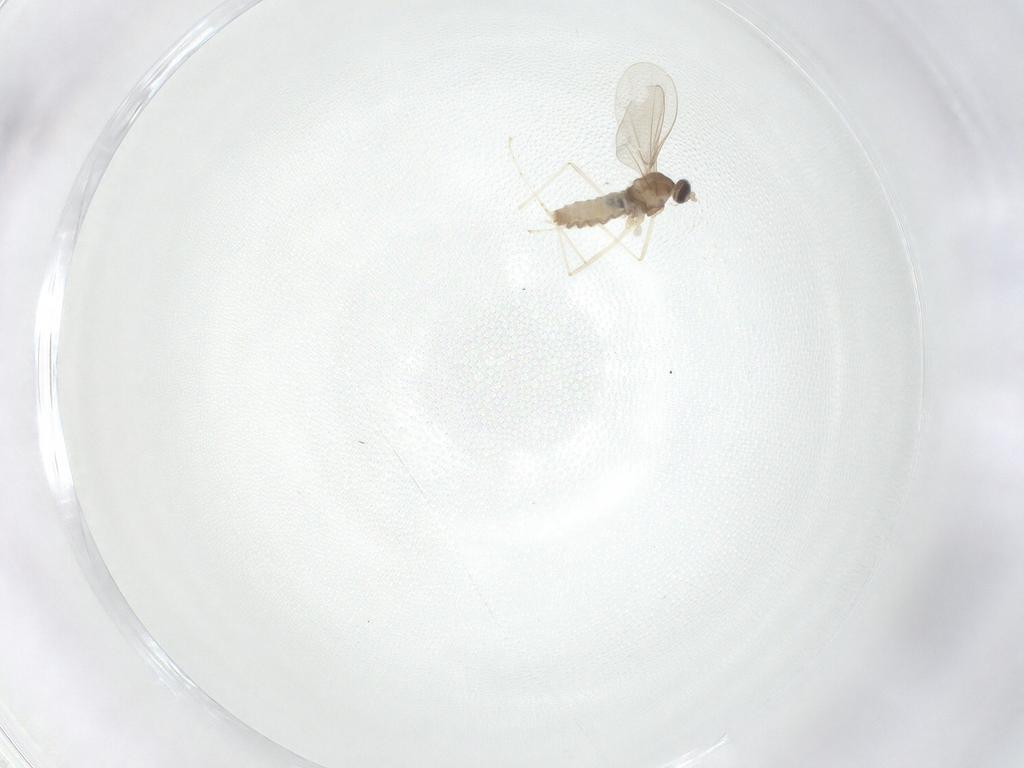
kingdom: Animalia
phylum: Arthropoda
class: Insecta
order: Diptera
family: Cecidomyiidae
